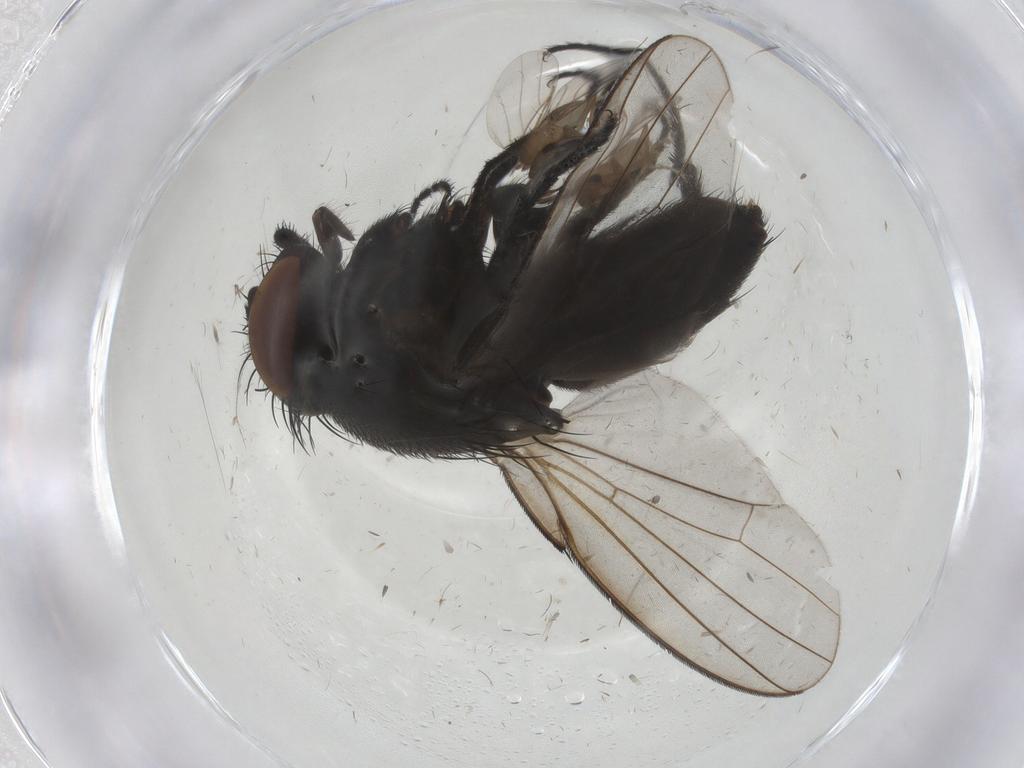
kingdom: Animalia
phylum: Arthropoda
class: Insecta
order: Diptera
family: Milichiidae
